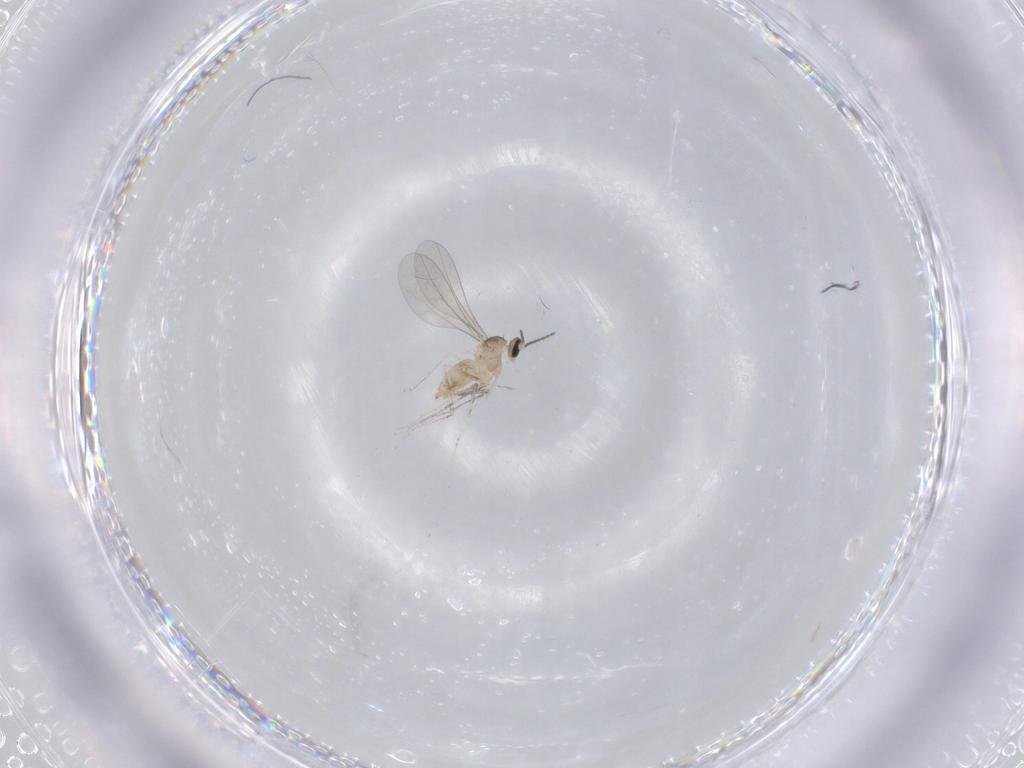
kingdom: Animalia
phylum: Arthropoda
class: Insecta
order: Diptera
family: Cecidomyiidae
